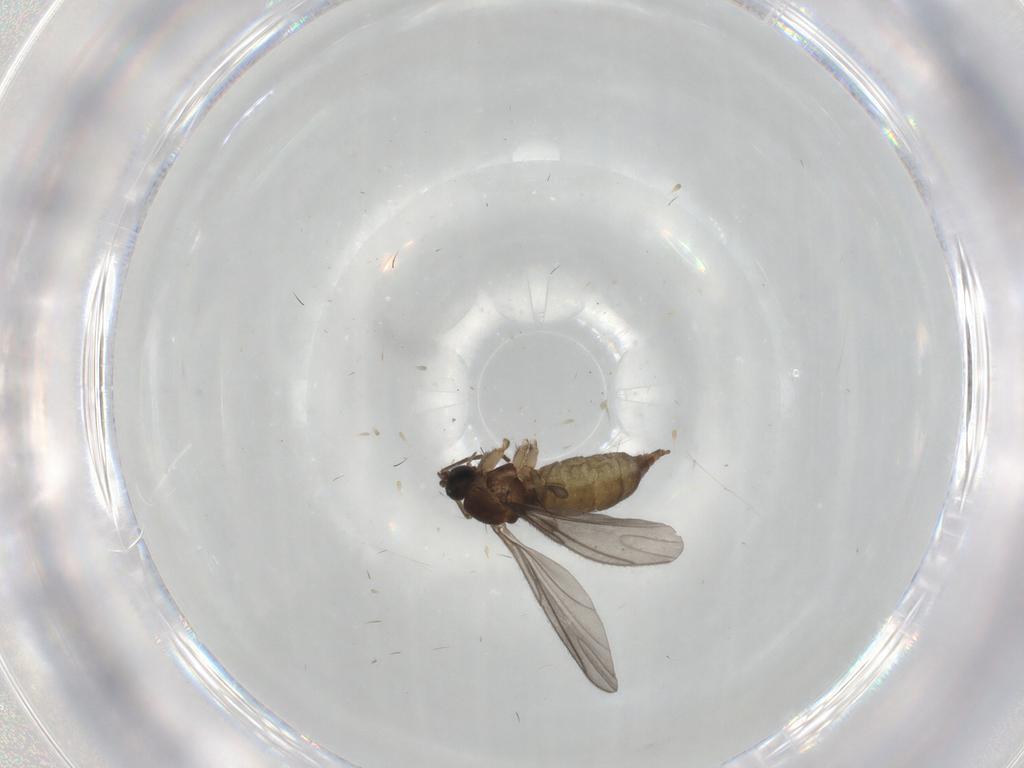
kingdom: Animalia
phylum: Arthropoda
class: Insecta
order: Diptera
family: Sciaridae
